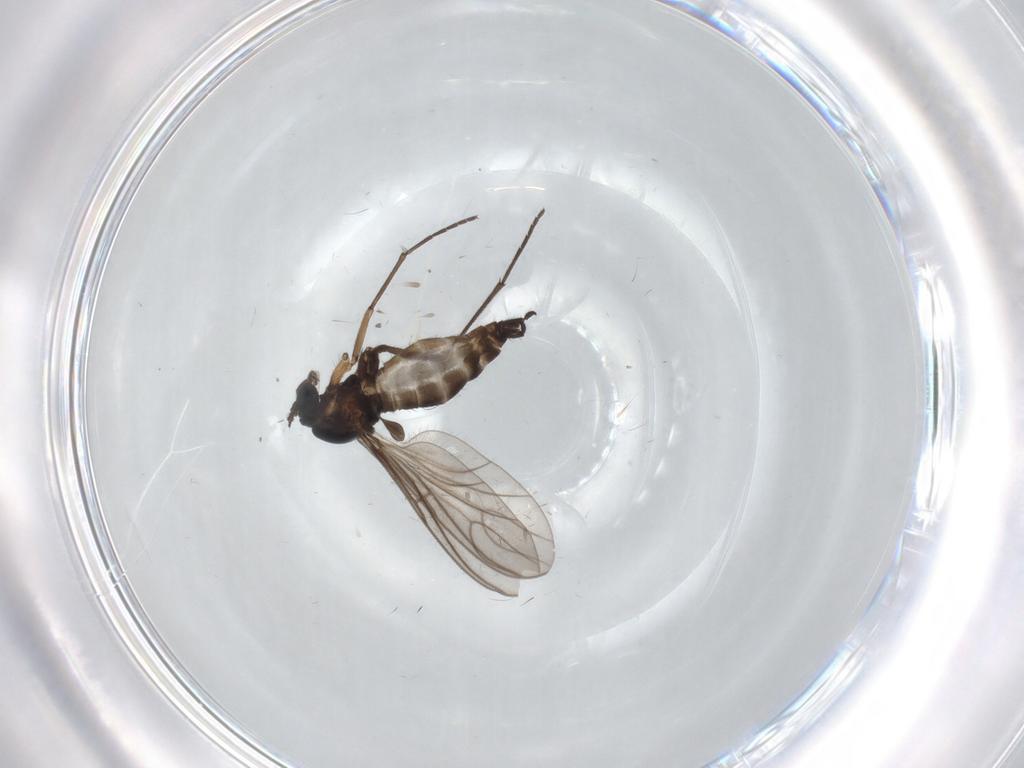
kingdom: Animalia
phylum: Arthropoda
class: Insecta
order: Diptera
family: Sciaridae
